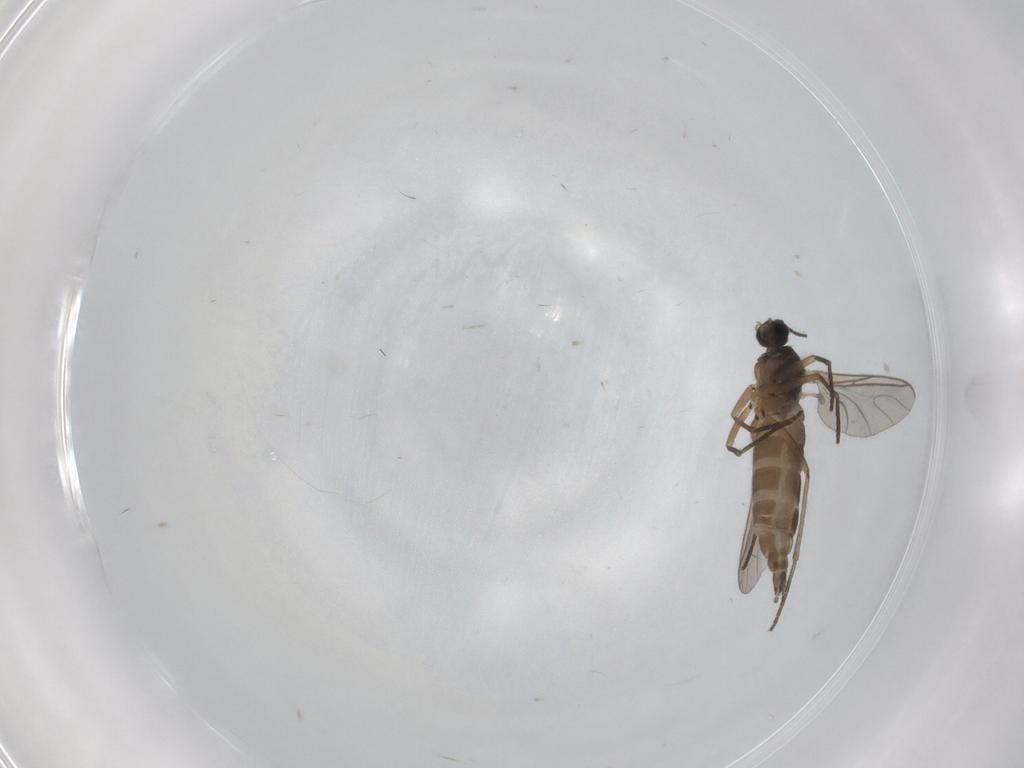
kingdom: Animalia
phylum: Arthropoda
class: Insecta
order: Diptera
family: Sciaridae
